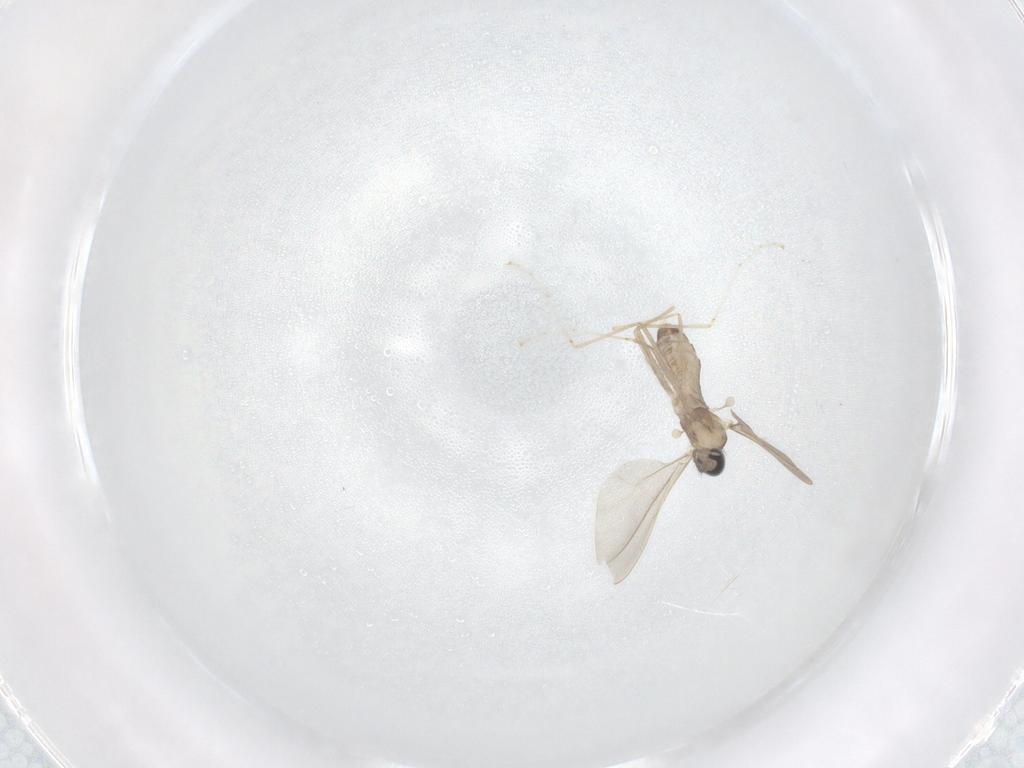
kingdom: Animalia
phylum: Arthropoda
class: Insecta
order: Diptera
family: Cecidomyiidae
